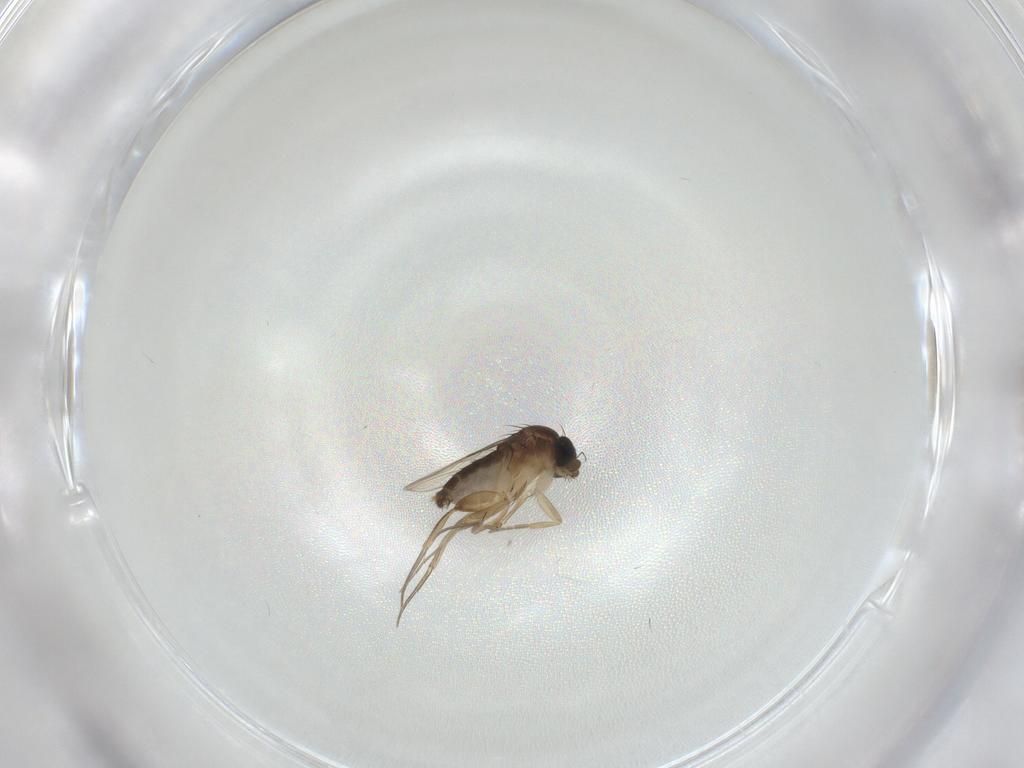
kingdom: Animalia
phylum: Arthropoda
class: Insecta
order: Diptera
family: Phoridae
